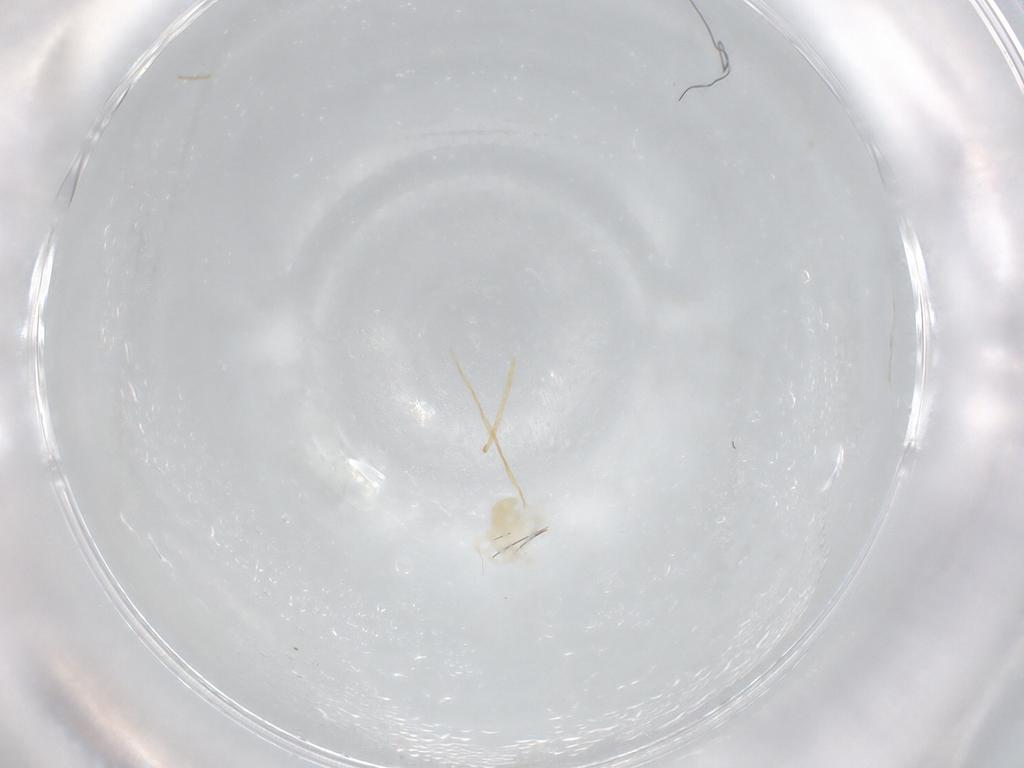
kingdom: Animalia
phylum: Arthropoda
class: Arachnida
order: Trombidiformes
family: Anystidae
